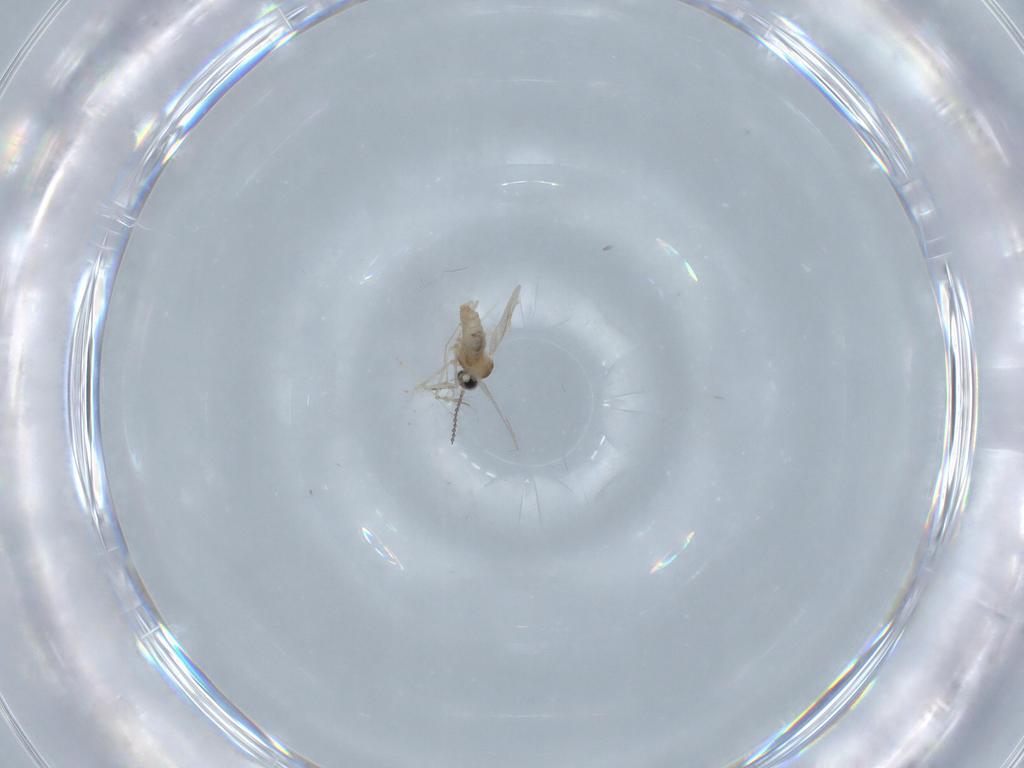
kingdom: Animalia
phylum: Arthropoda
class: Insecta
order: Diptera
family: Chironomidae
